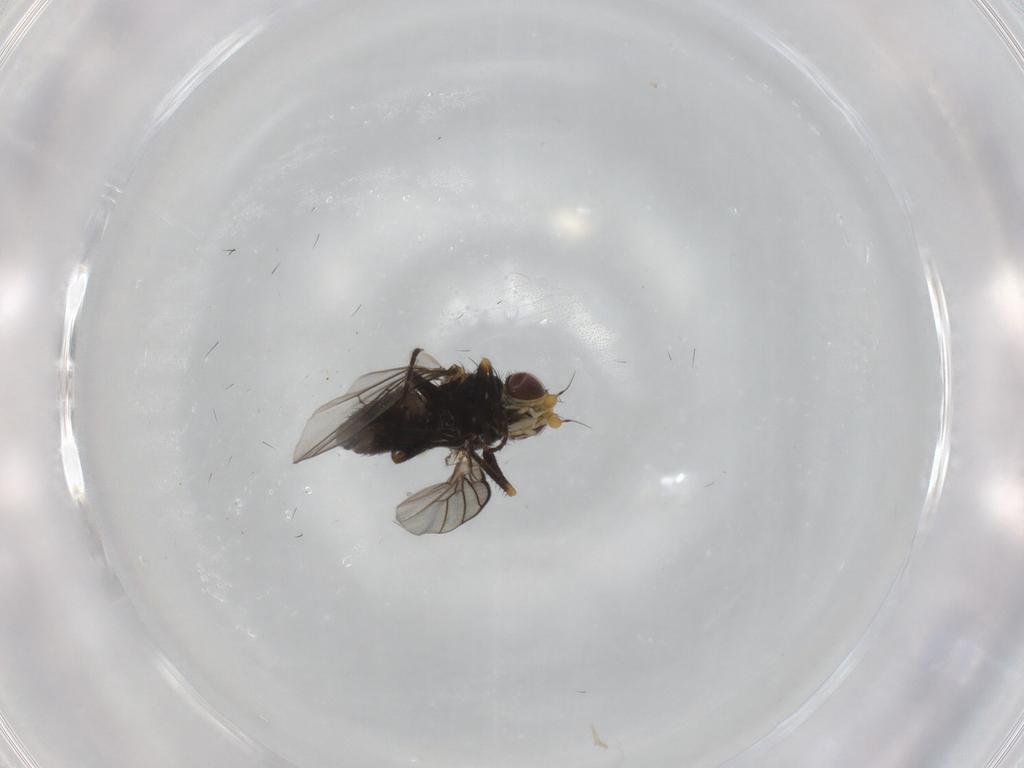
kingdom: Animalia
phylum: Arthropoda
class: Insecta
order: Diptera
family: Agromyzidae
